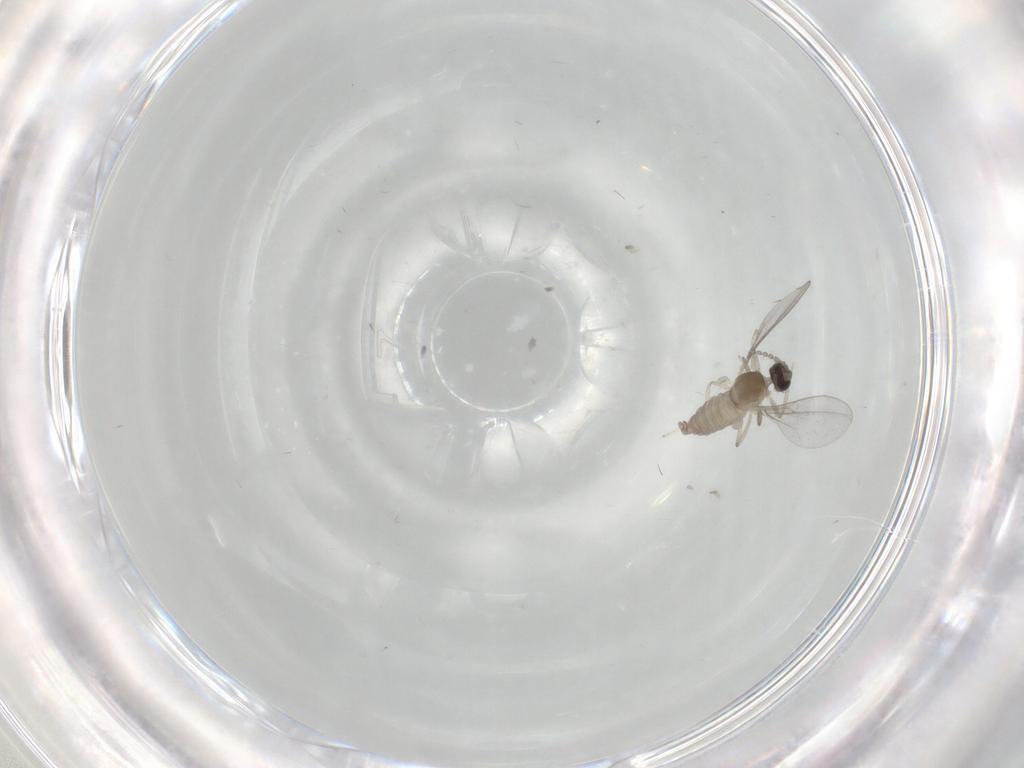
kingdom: Animalia
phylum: Arthropoda
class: Insecta
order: Diptera
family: Cecidomyiidae
